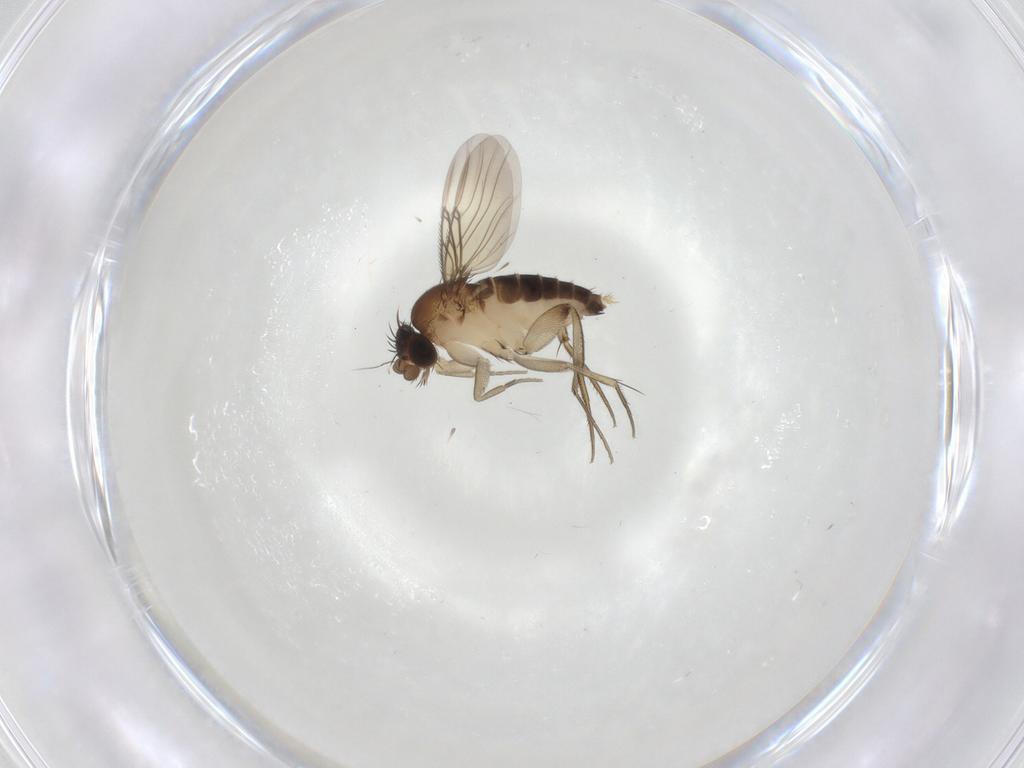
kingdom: Animalia
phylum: Arthropoda
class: Insecta
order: Diptera
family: Phoridae
